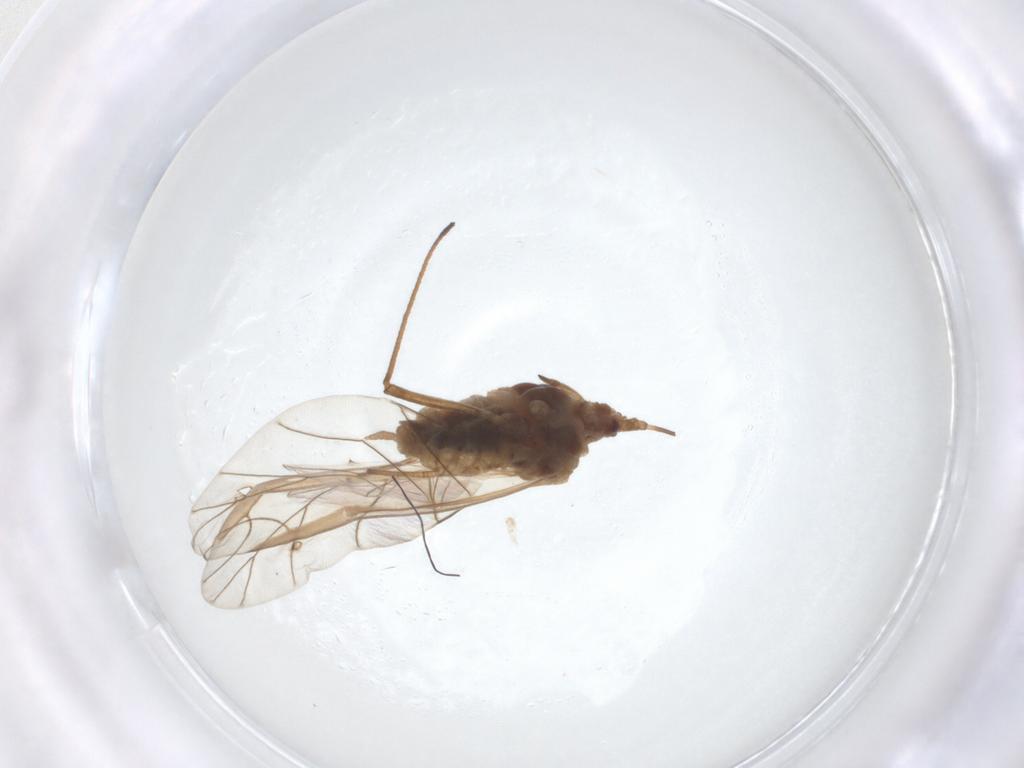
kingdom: Animalia
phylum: Arthropoda
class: Insecta
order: Hemiptera
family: Aphididae
